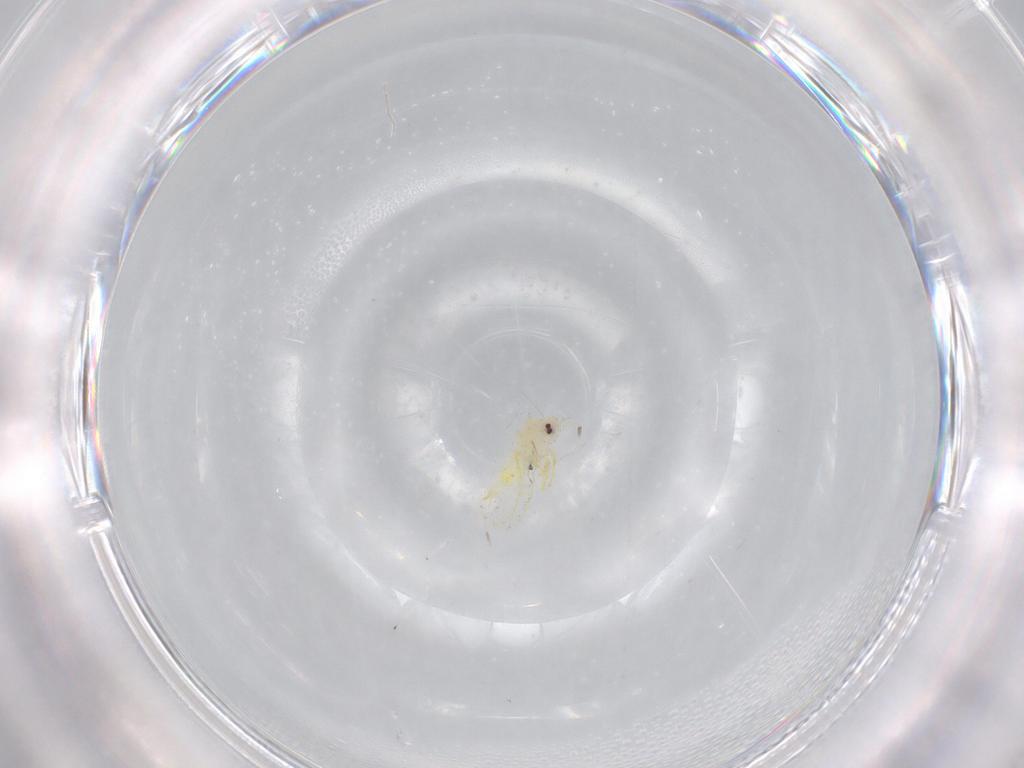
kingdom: Animalia
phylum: Arthropoda
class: Insecta
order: Hemiptera
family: Aleyrodidae
